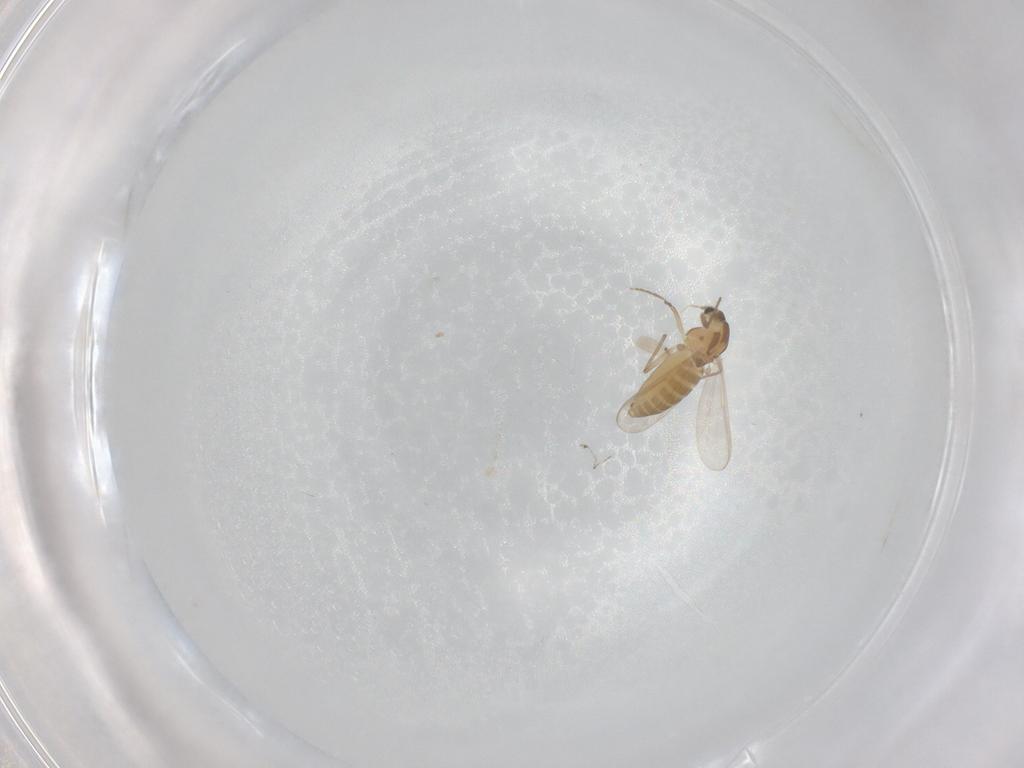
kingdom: Animalia
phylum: Arthropoda
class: Insecta
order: Diptera
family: Chironomidae
